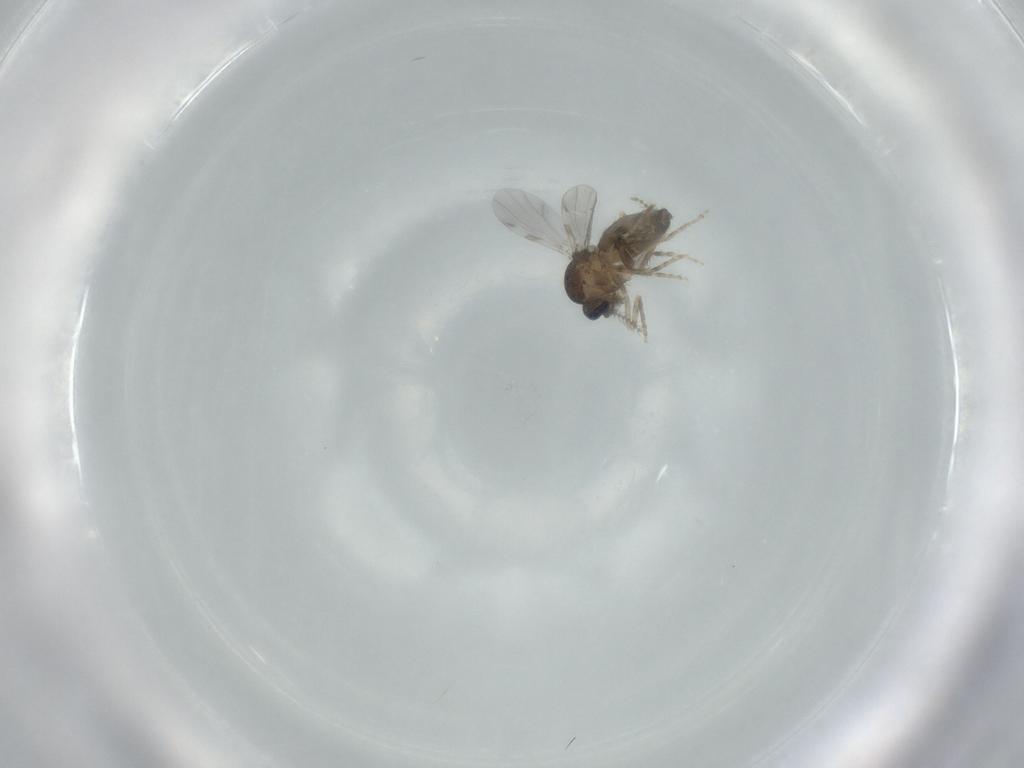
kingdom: Animalia
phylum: Arthropoda
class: Insecta
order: Diptera
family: Ceratopogonidae
